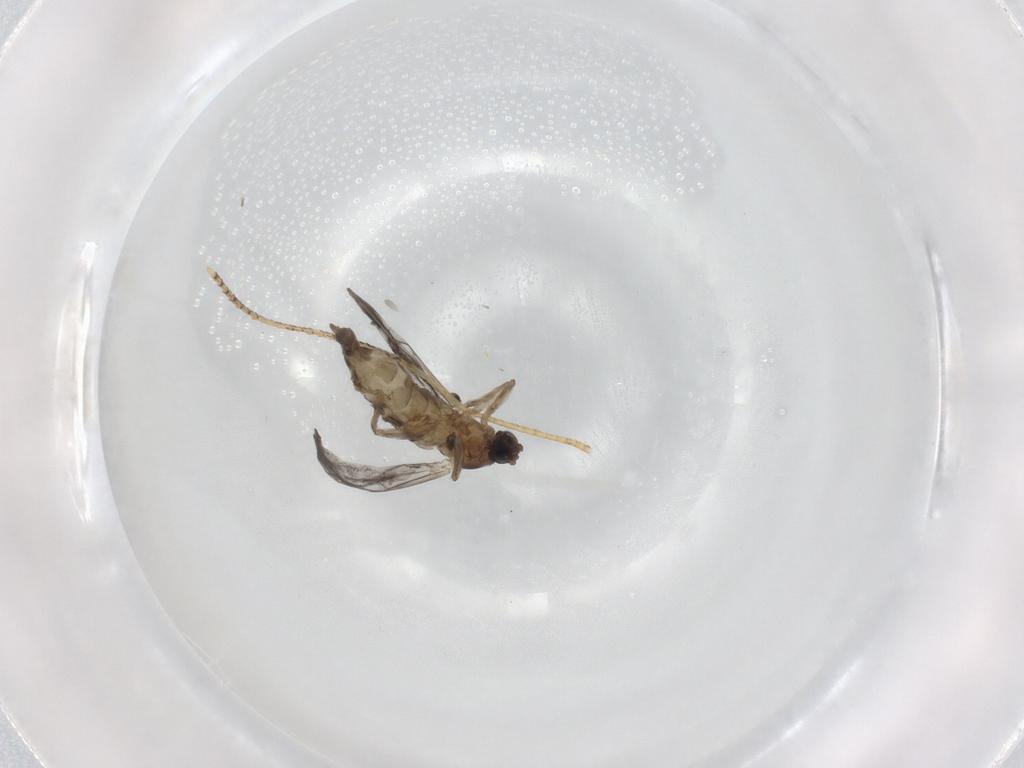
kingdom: Animalia
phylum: Arthropoda
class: Insecta
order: Diptera
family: Cecidomyiidae
